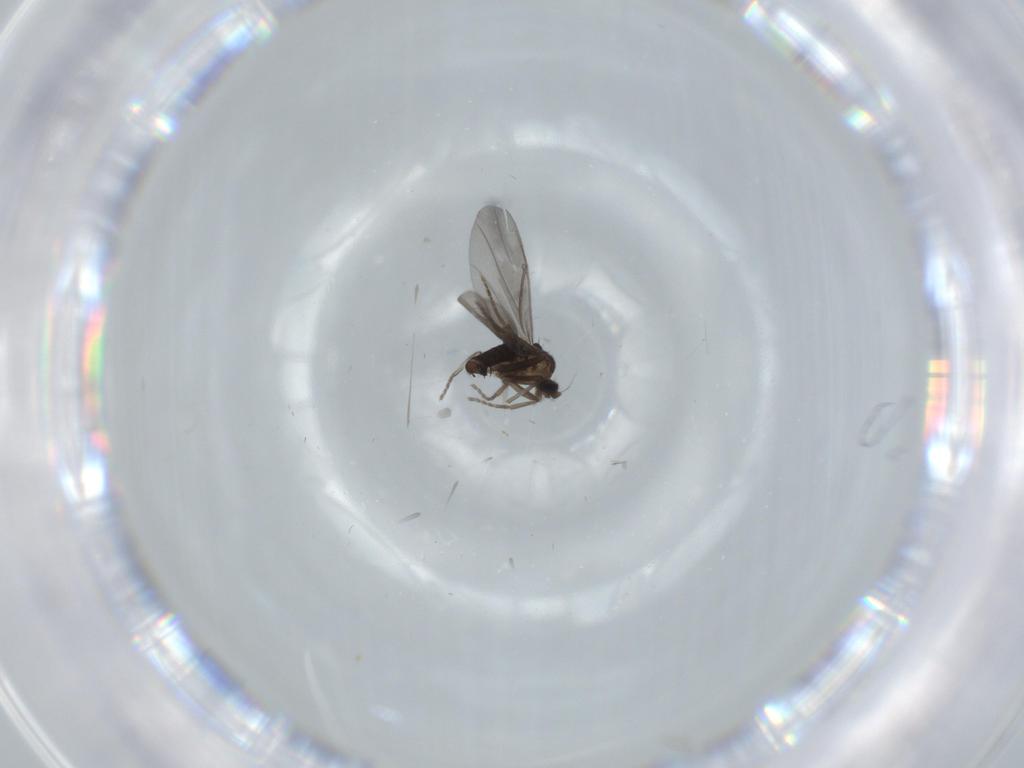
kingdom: Animalia
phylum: Arthropoda
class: Insecta
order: Diptera
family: Phoridae
